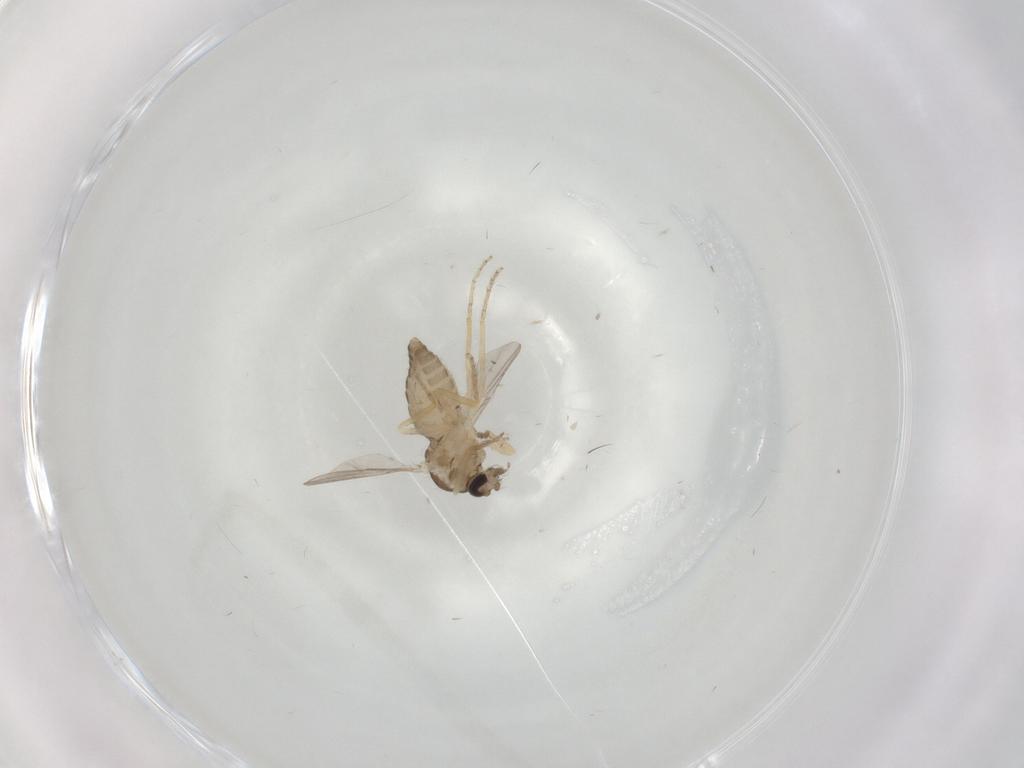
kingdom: Animalia
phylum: Arthropoda
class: Insecta
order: Diptera
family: Ceratopogonidae
